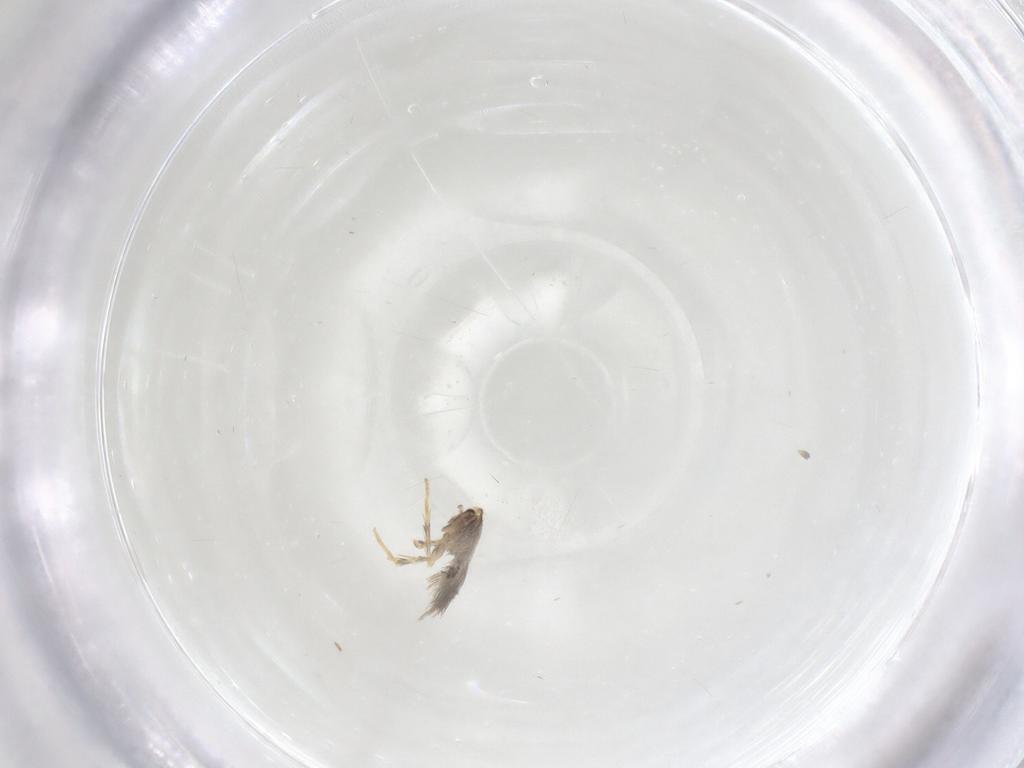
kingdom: Animalia
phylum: Arthropoda
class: Insecta
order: Lepidoptera
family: Nepticulidae
